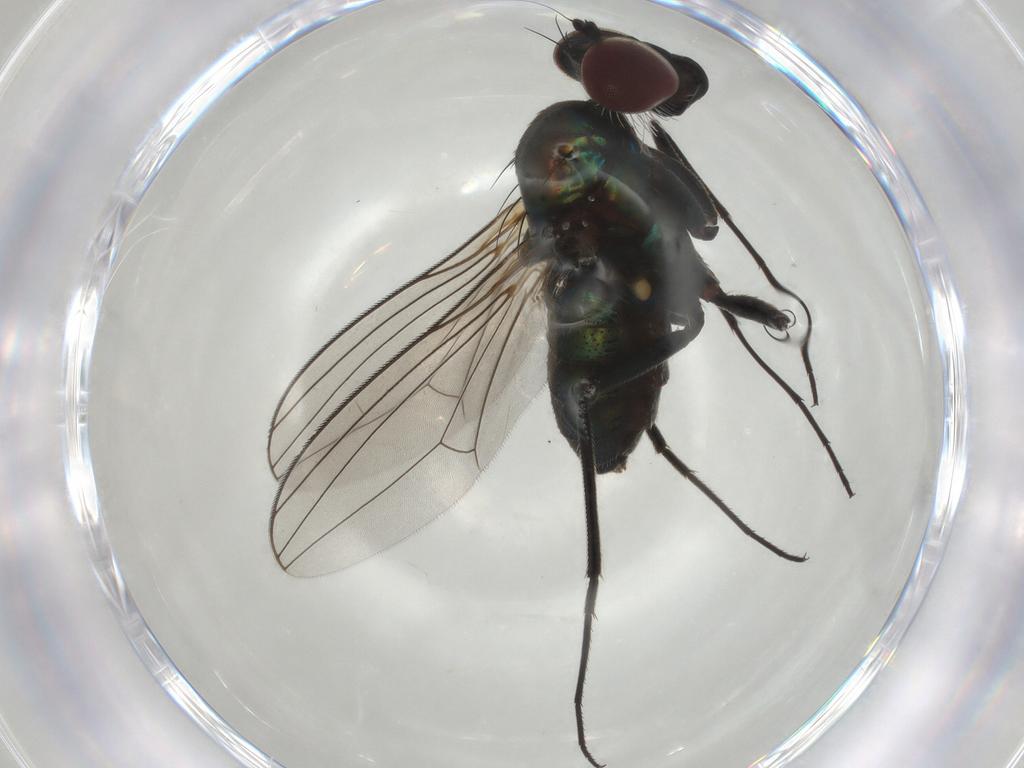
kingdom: Animalia
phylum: Arthropoda
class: Insecta
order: Diptera
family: Dolichopodidae
